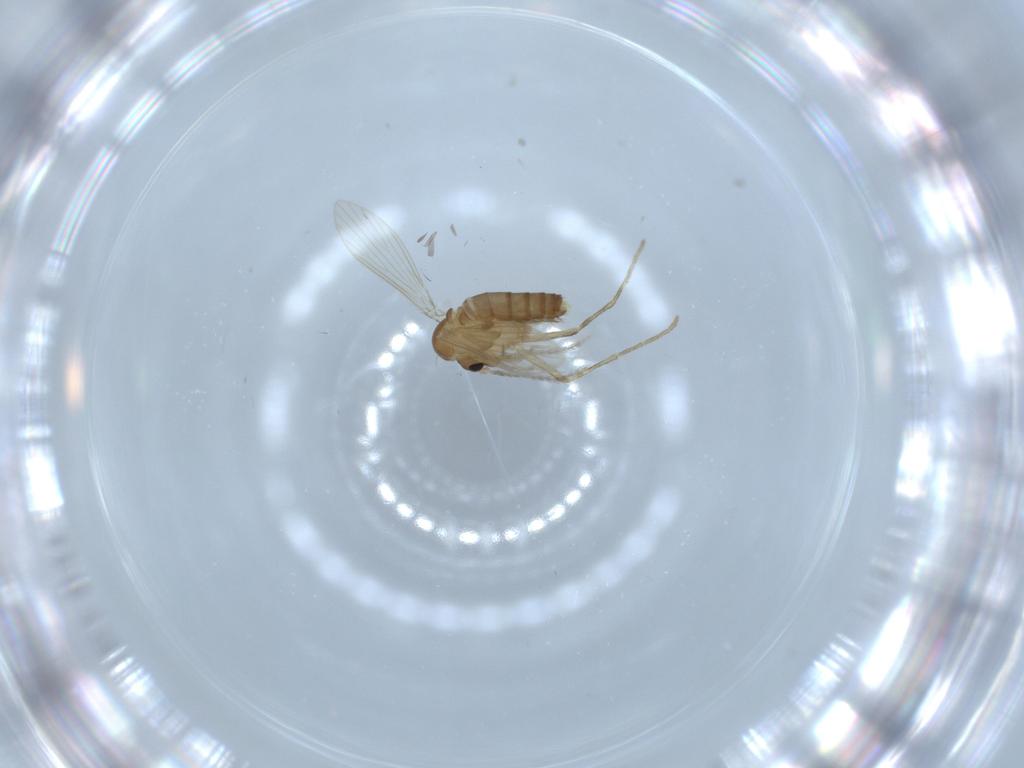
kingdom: Animalia
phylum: Arthropoda
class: Insecta
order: Diptera
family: Psychodidae
